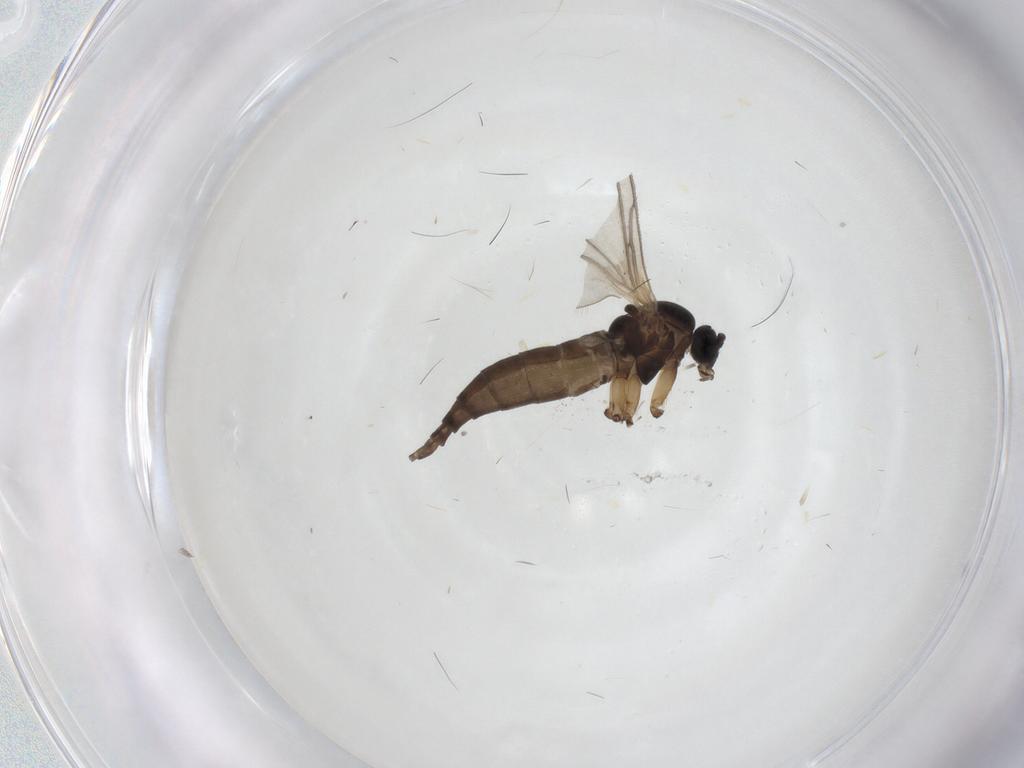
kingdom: Animalia
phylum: Arthropoda
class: Insecta
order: Diptera
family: Sciaridae
